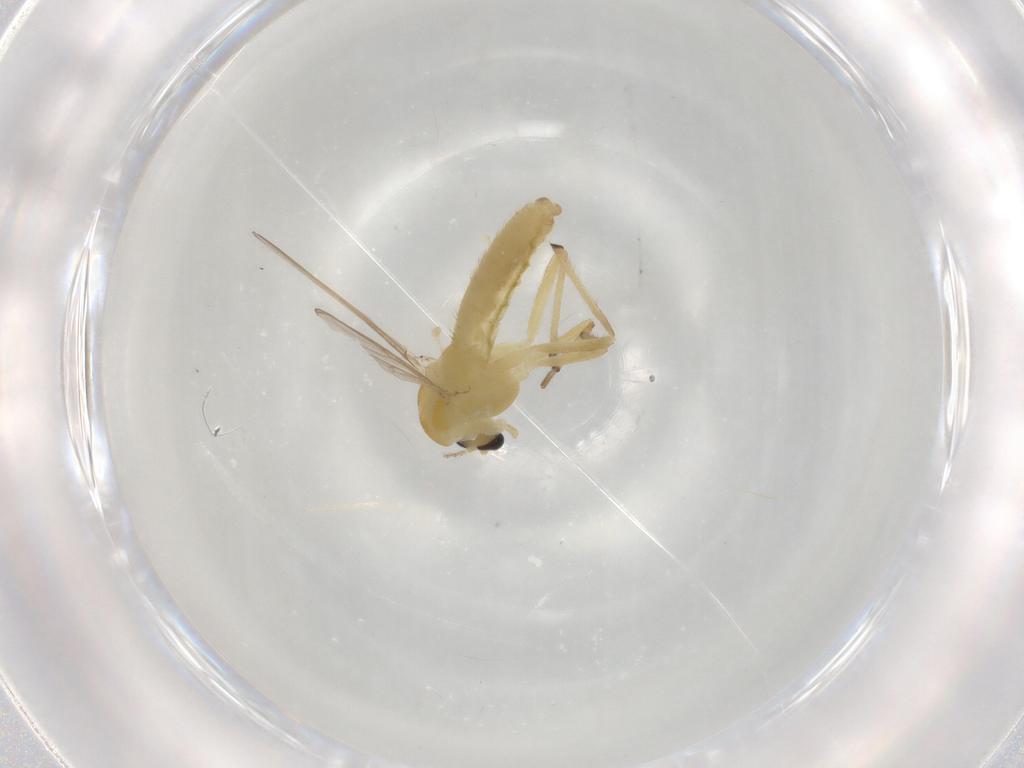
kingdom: Animalia
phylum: Arthropoda
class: Insecta
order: Diptera
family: Chironomidae
